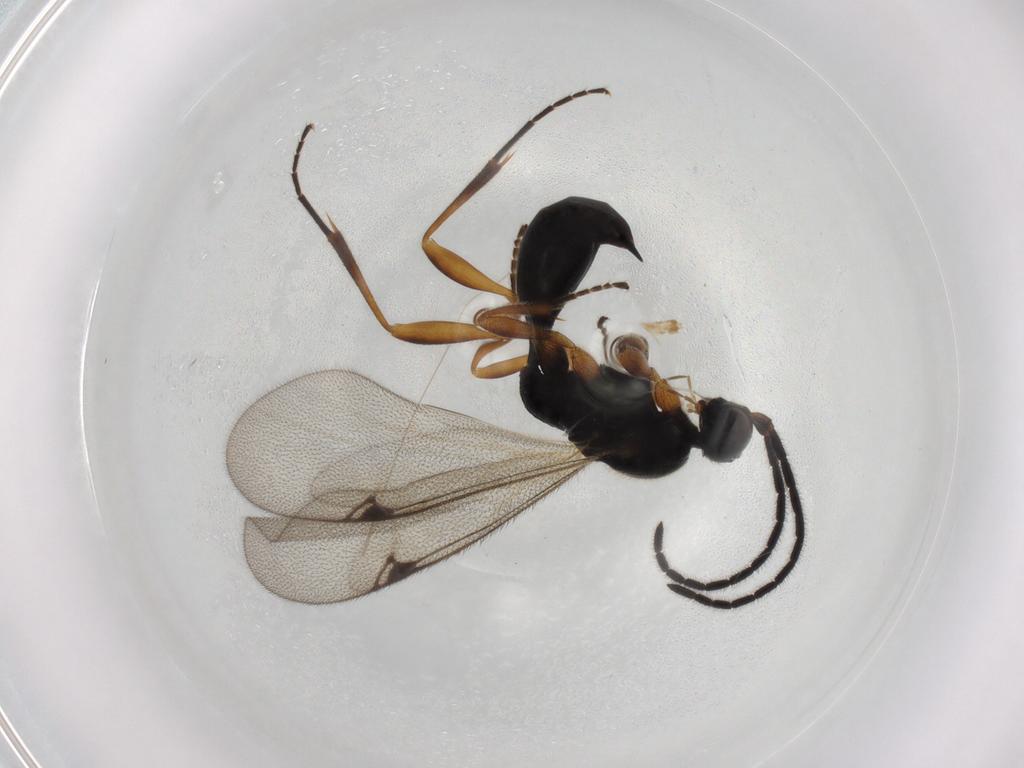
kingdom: Animalia
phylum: Arthropoda
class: Insecta
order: Hymenoptera
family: Proctotrupidae
